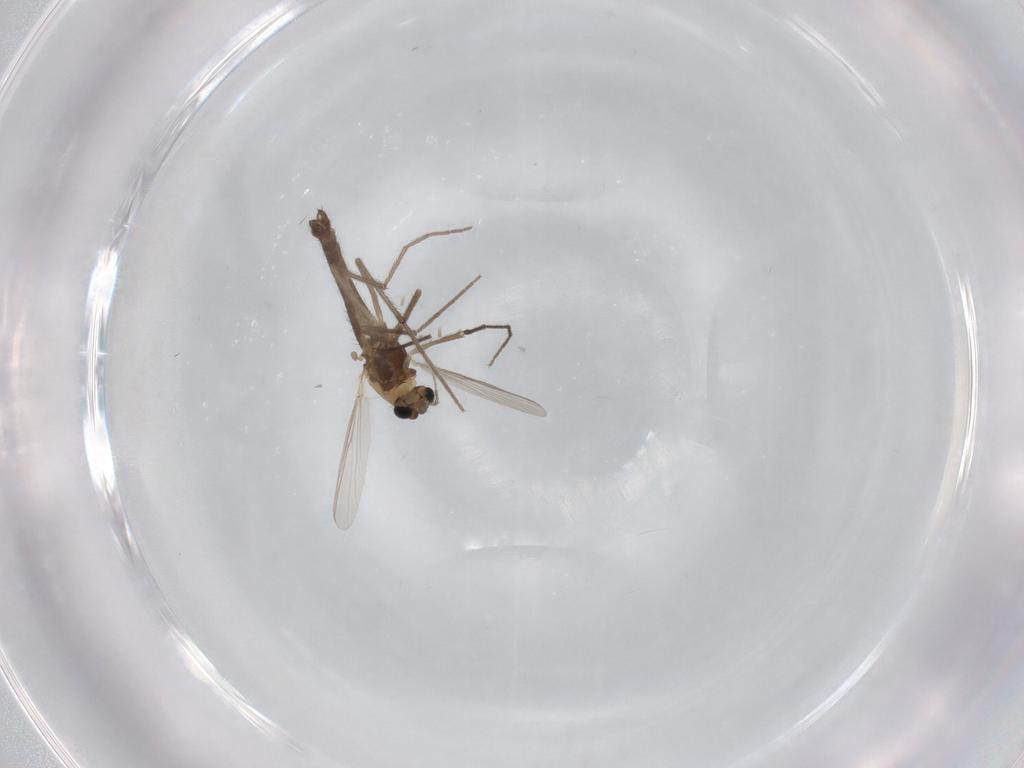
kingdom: Animalia
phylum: Arthropoda
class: Insecta
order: Diptera
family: Chironomidae
